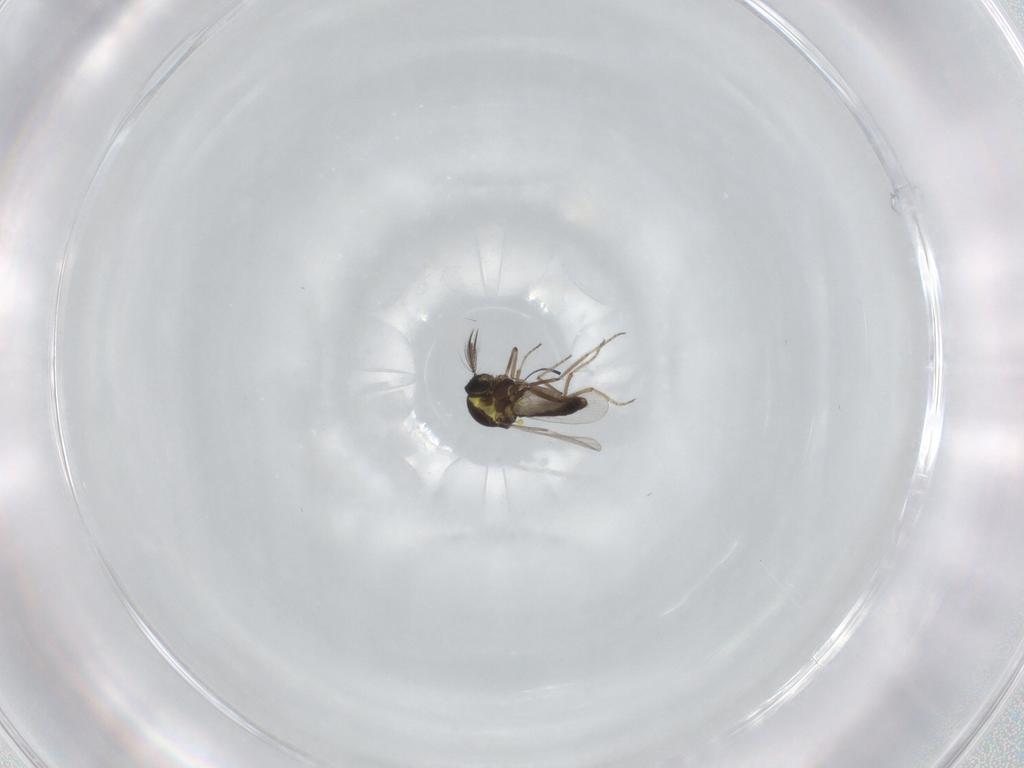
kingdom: Animalia
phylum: Arthropoda
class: Insecta
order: Diptera
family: Ceratopogonidae
